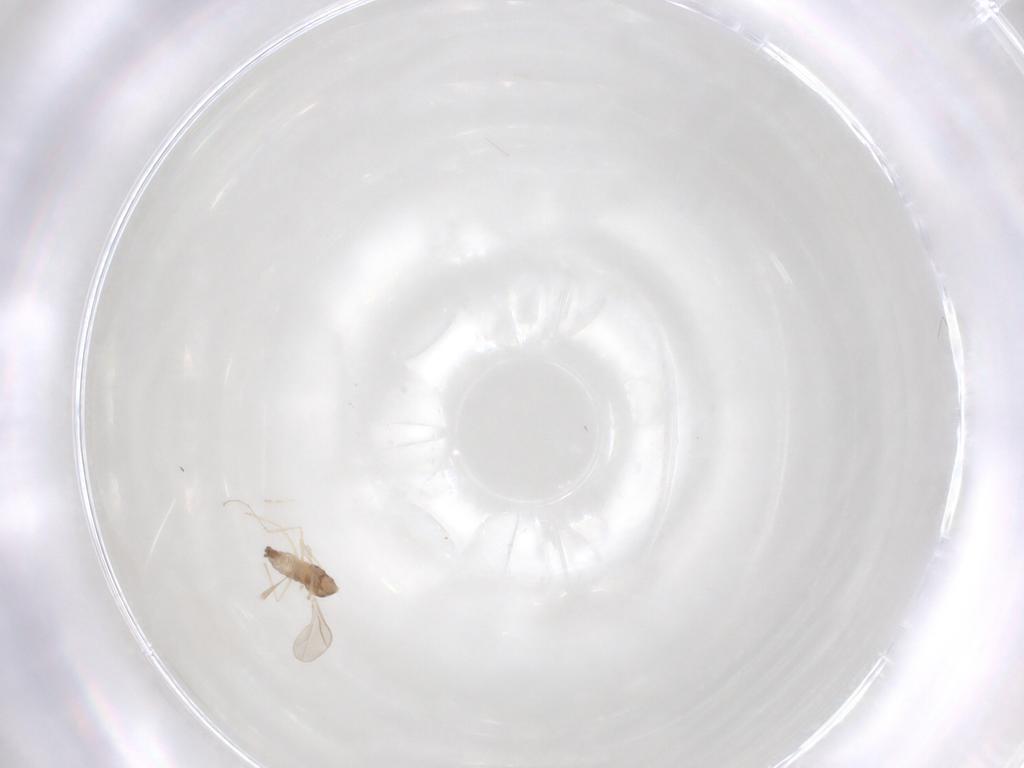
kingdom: Animalia
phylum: Arthropoda
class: Insecta
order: Diptera
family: Cecidomyiidae
